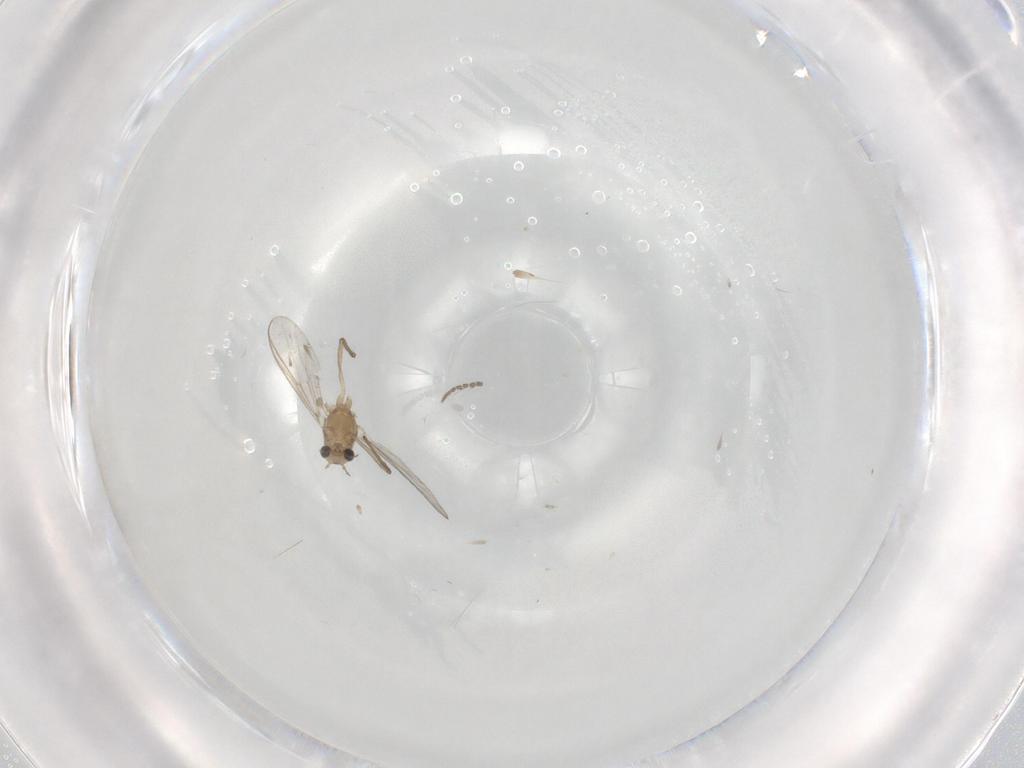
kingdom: Animalia
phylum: Arthropoda
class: Insecta
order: Diptera
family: Chironomidae
